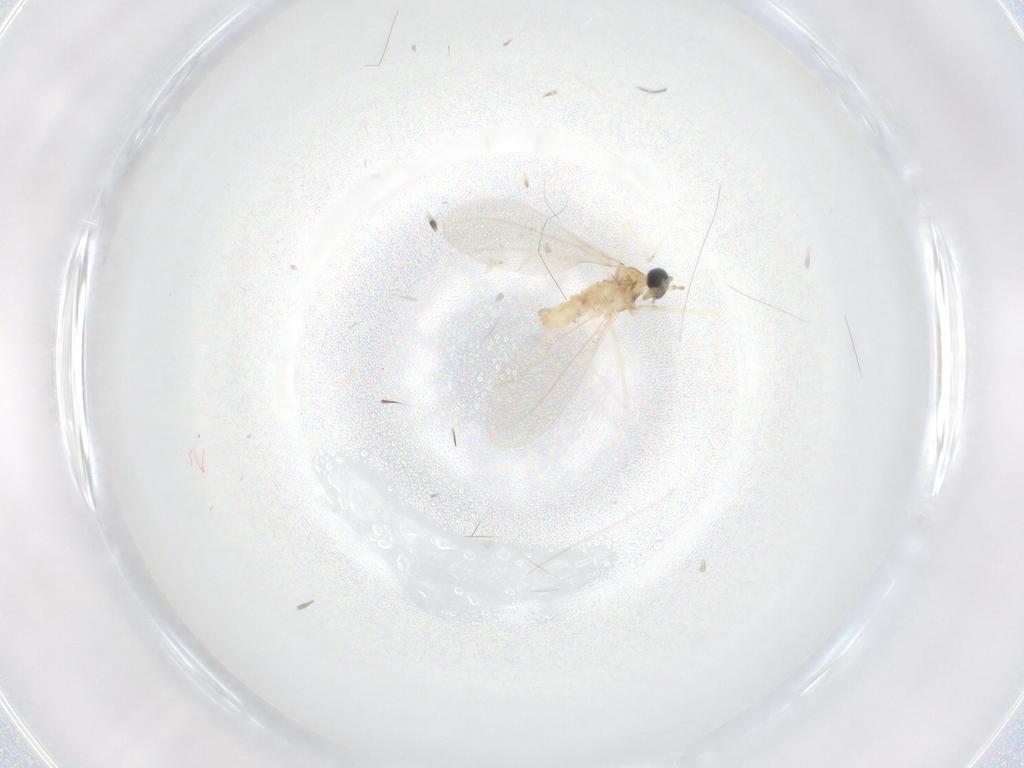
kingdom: Animalia
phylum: Arthropoda
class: Insecta
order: Diptera
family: Cecidomyiidae
